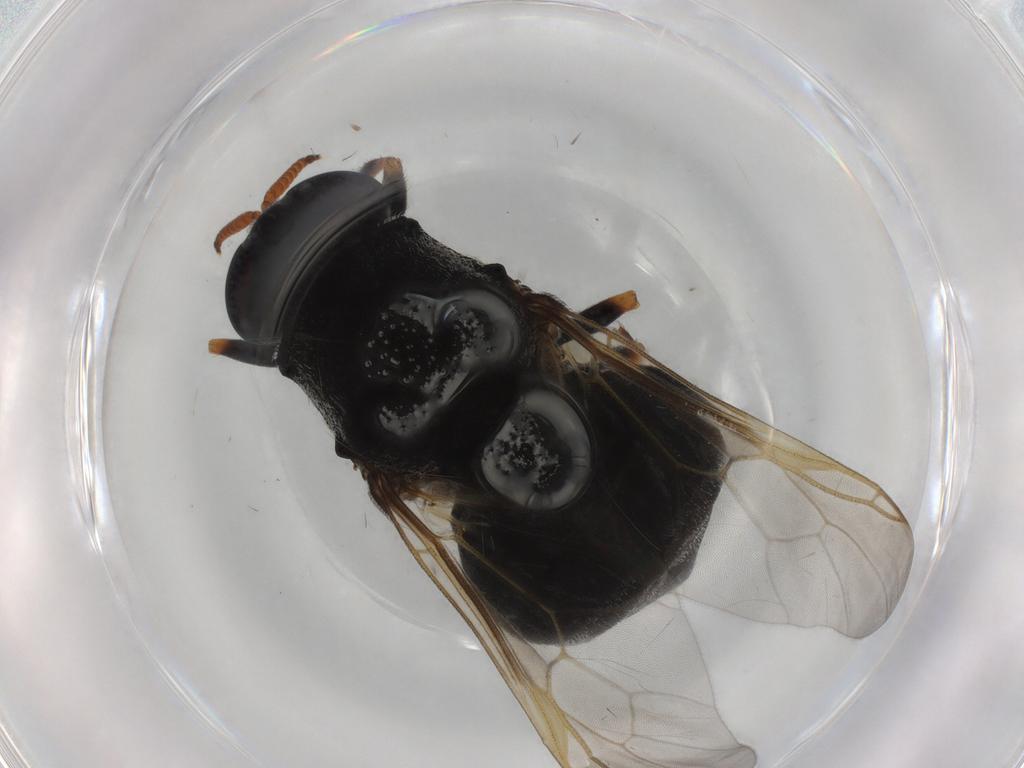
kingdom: Animalia
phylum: Arthropoda
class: Insecta
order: Diptera
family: Stratiomyidae
